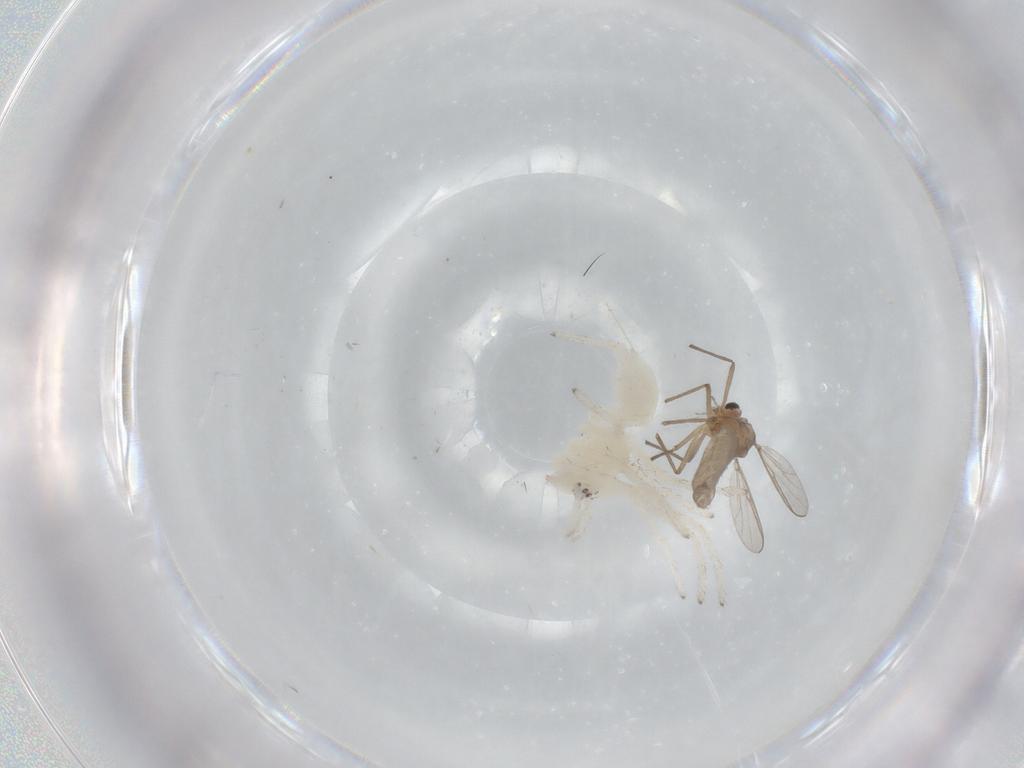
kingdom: Animalia
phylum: Arthropoda
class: Insecta
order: Diptera
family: Chironomidae
